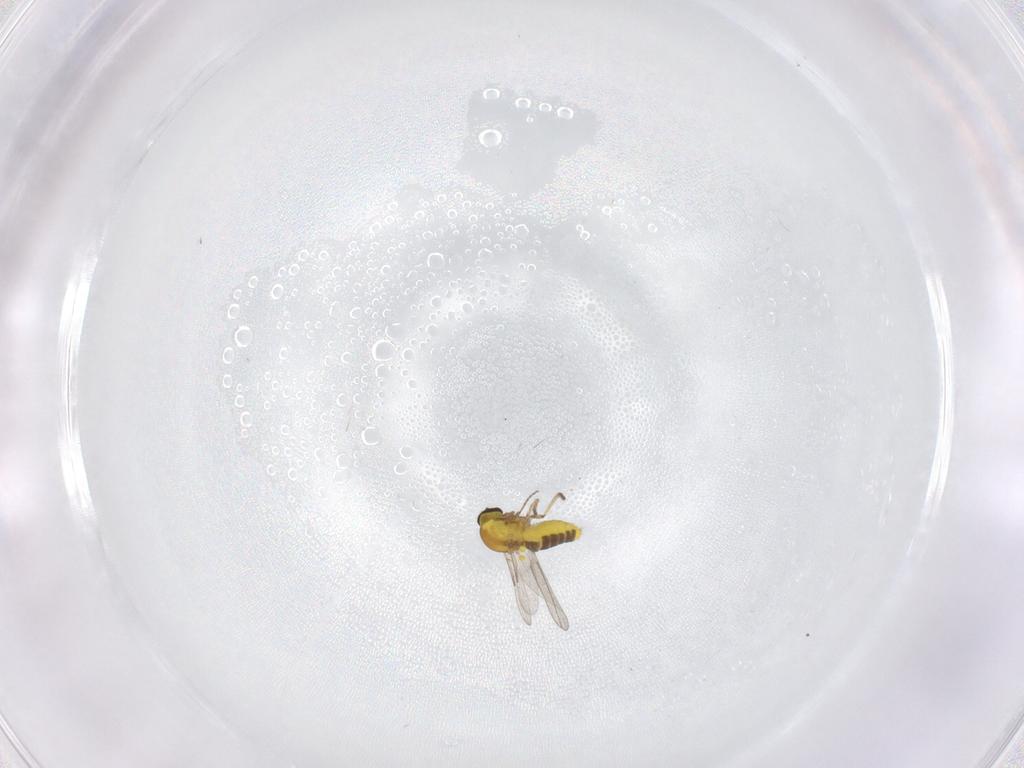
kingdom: Animalia
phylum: Arthropoda
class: Insecta
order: Diptera
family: Ceratopogonidae
